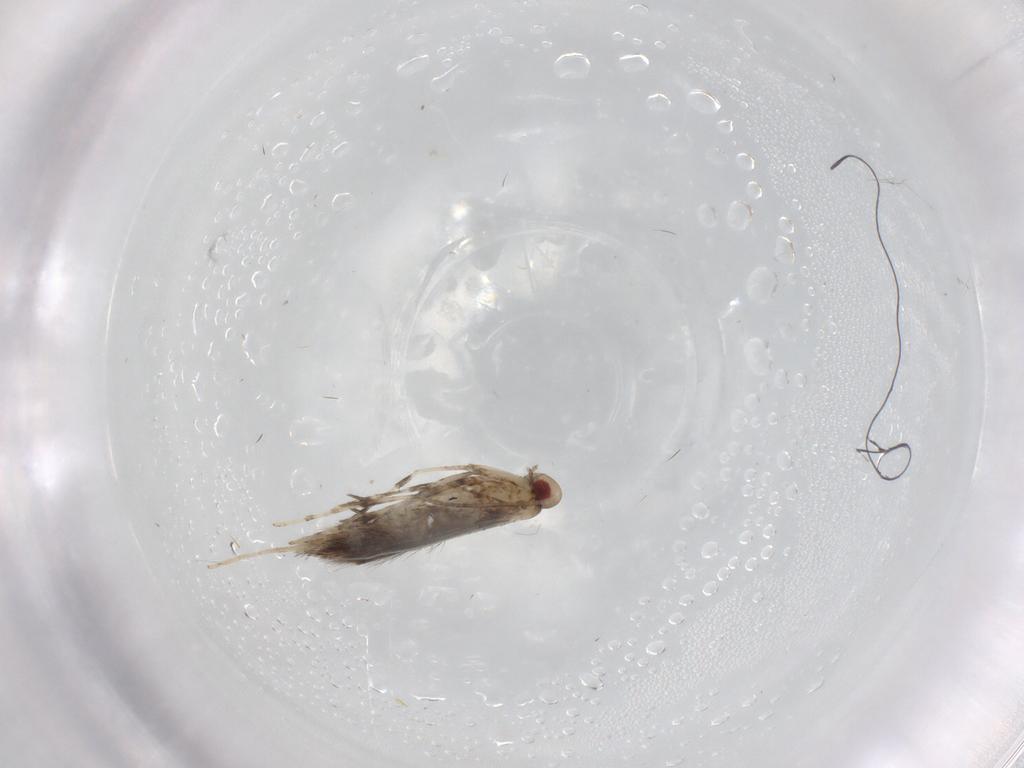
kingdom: Animalia
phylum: Arthropoda
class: Insecta
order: Lepidoptera
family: Gracillariidae
